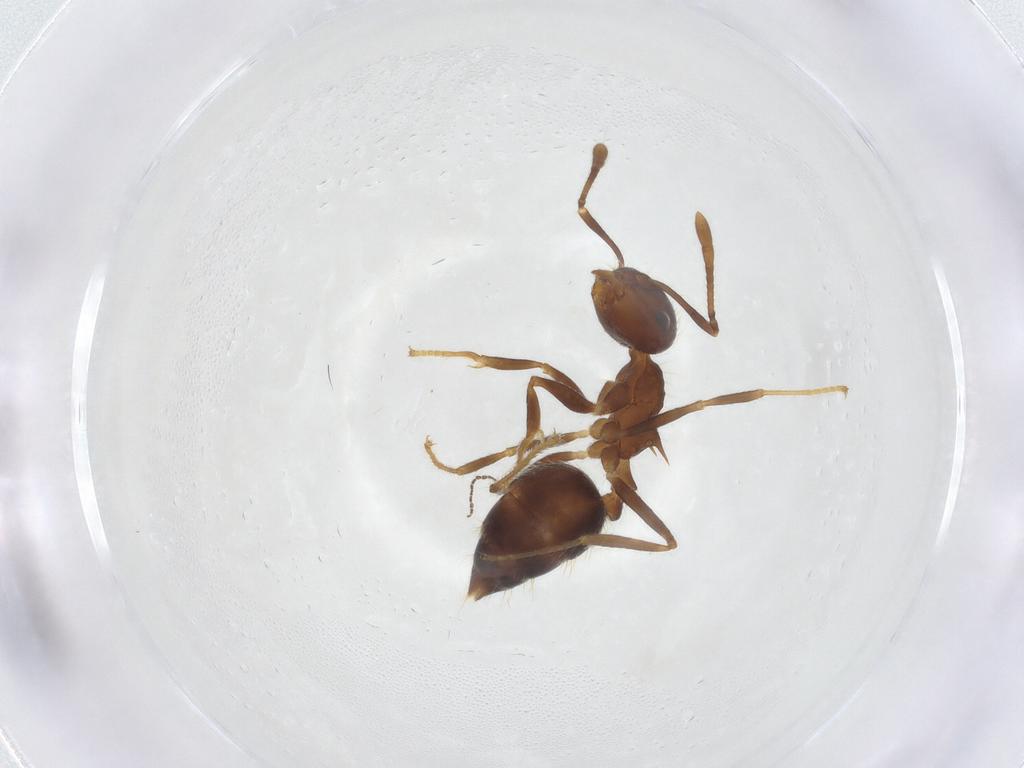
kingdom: Animalia
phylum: Arthropoda
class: Insecta
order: Hymenoptera
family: Formicidae
